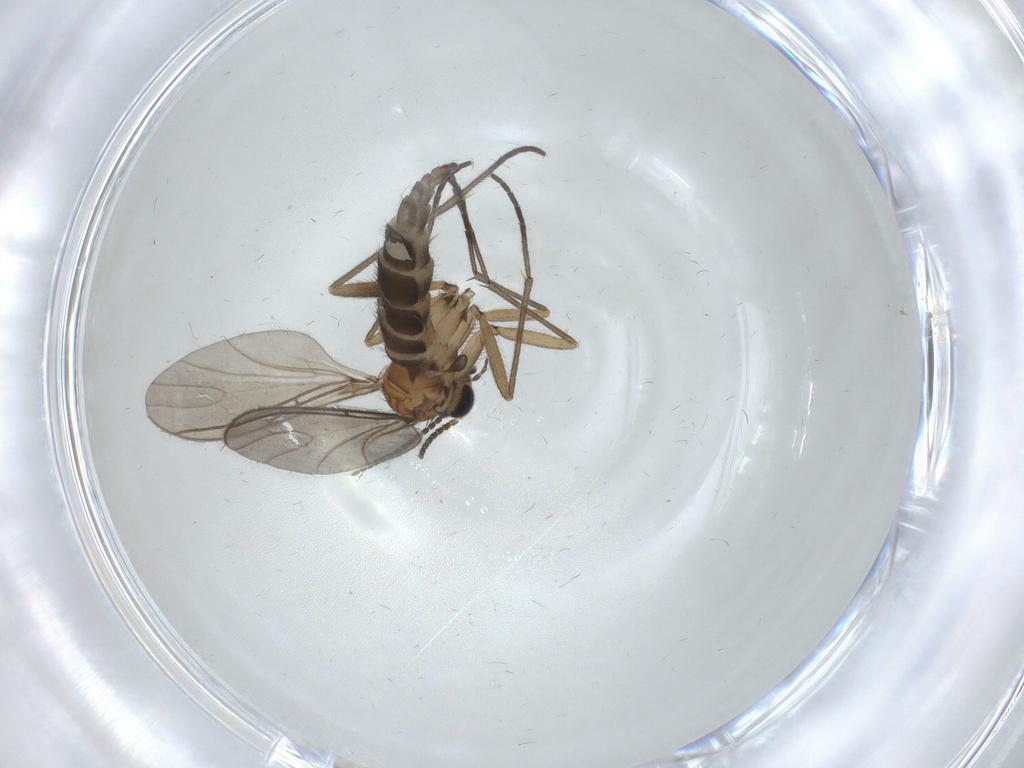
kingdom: Animalia
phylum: Arthropoda
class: Insecta
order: Diptera
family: Sciaridae
